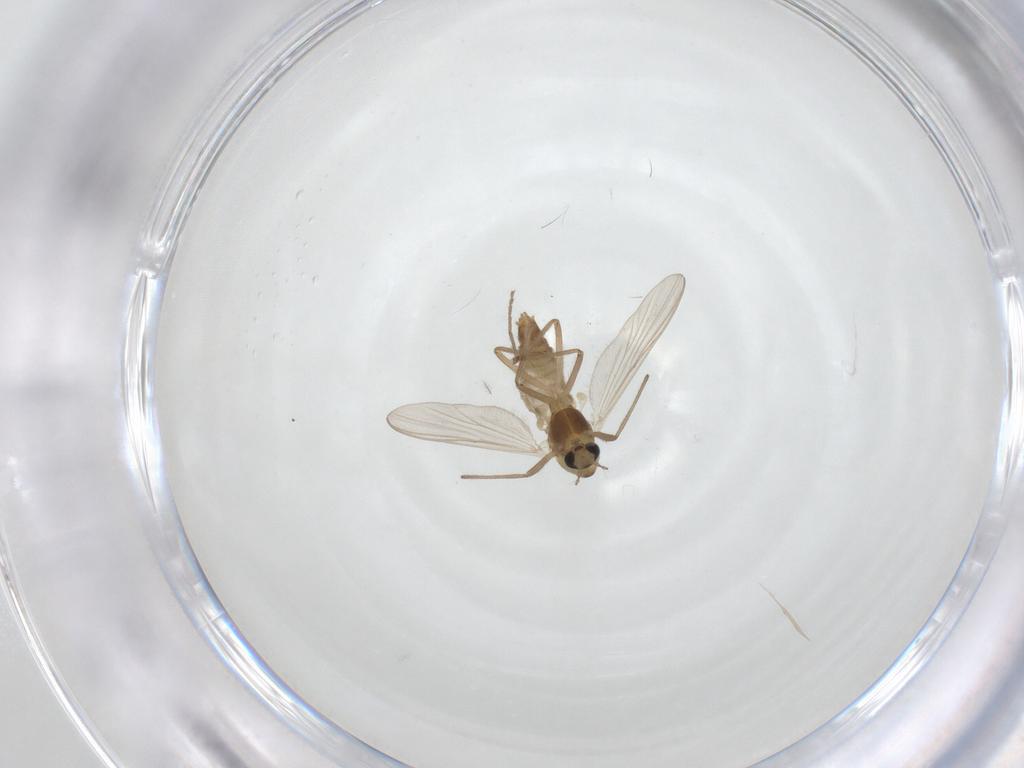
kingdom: Animalia
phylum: Arthropoda
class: Insecta
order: Diptera
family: Chironomidae
